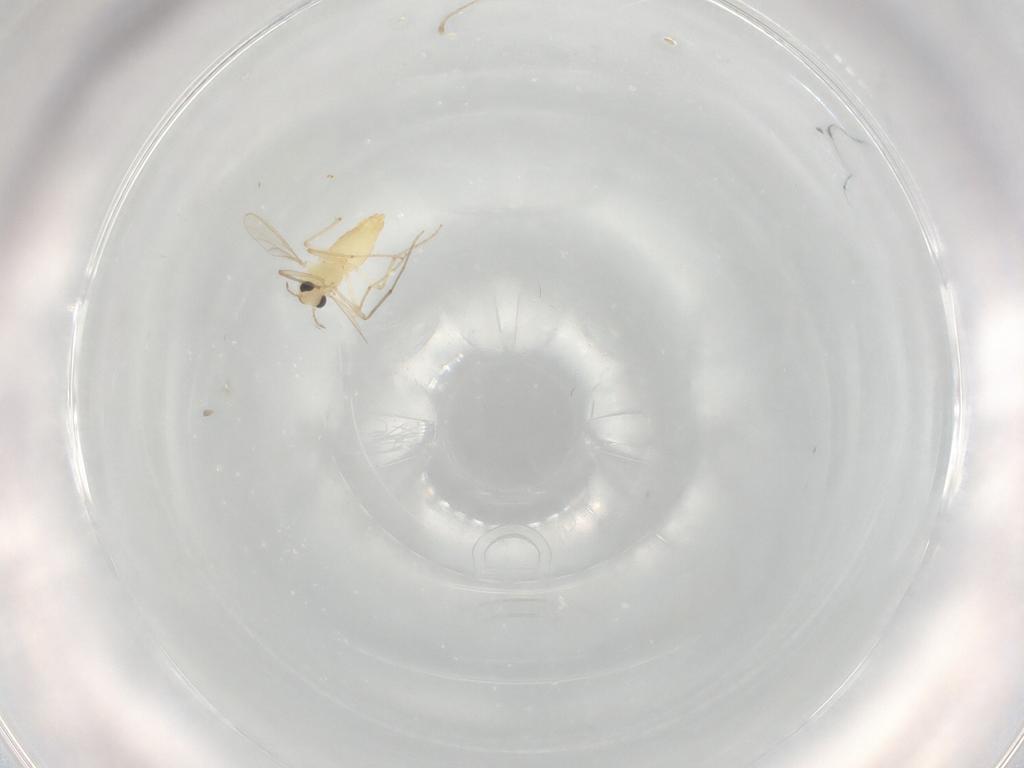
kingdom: Animalia
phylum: Arthropoda
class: Insecta
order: Diptera
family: Chironomidae
